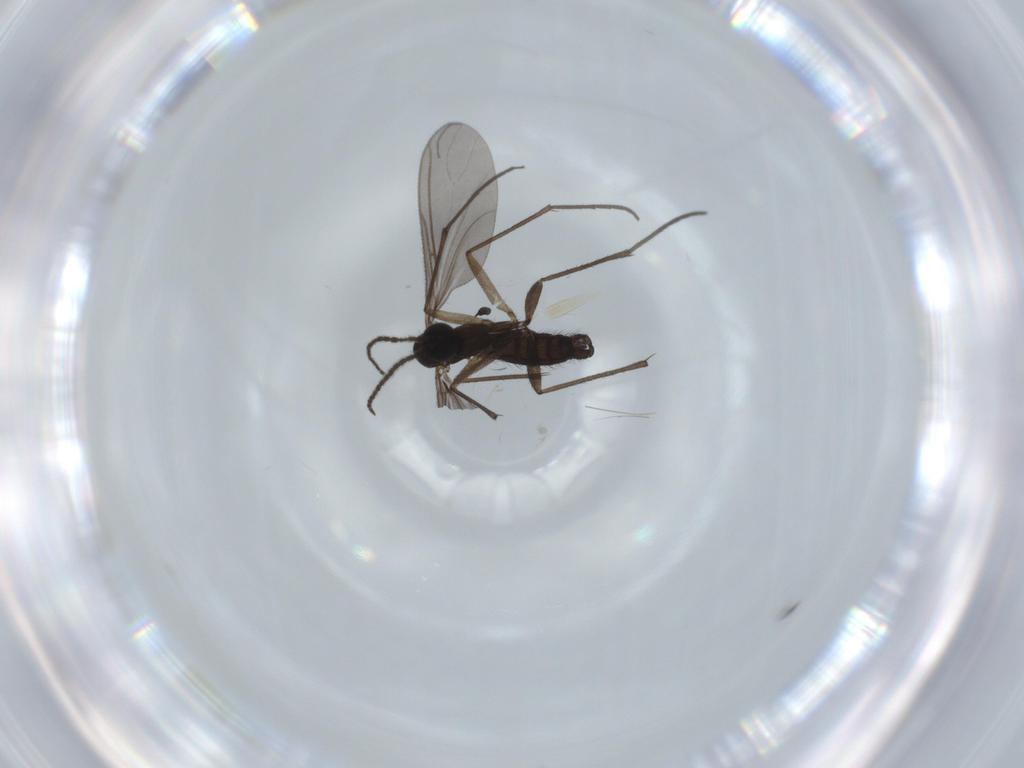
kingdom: Animalia
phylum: Arthropoda
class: Insecta
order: Diptera
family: Sciaridae
